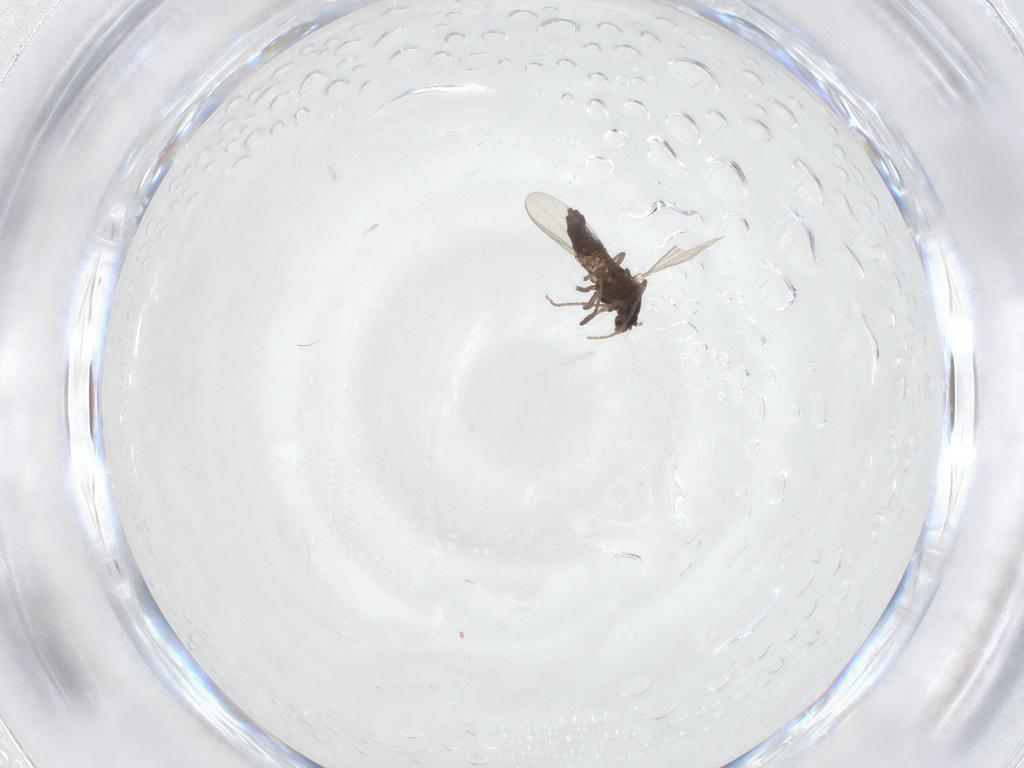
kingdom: Animalia
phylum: Arthropoda
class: Insecta
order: Diptera
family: Chironomidae
